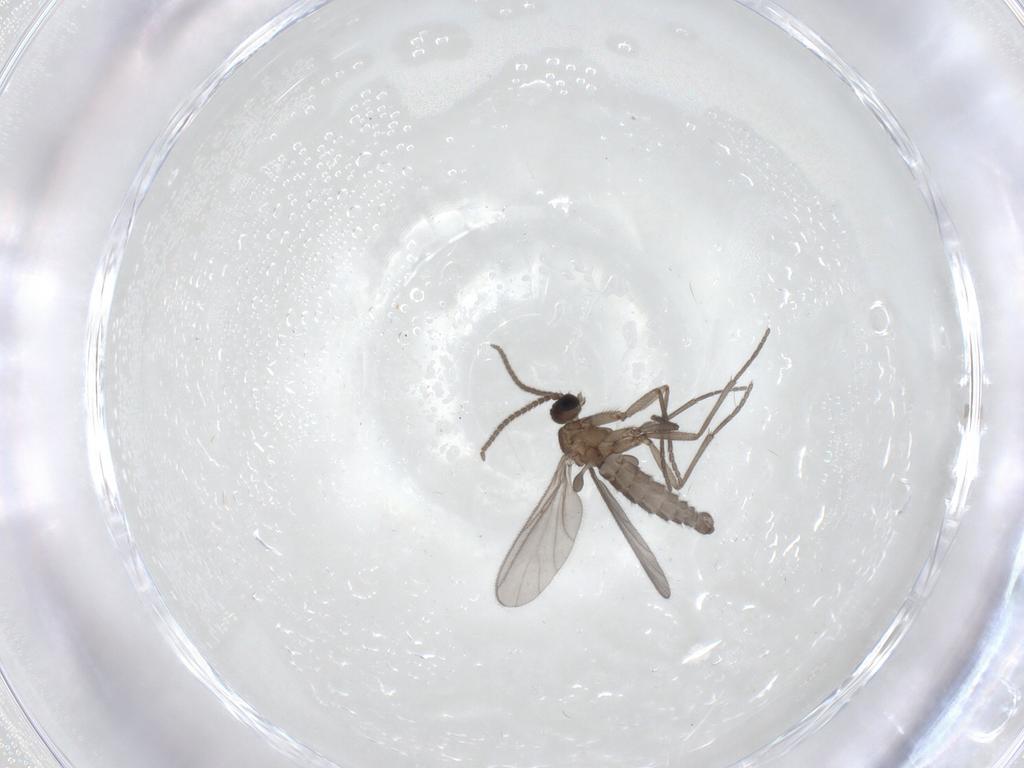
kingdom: Animalia
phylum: Arthropoda
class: Insecta
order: Diptera
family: Sciaridae
